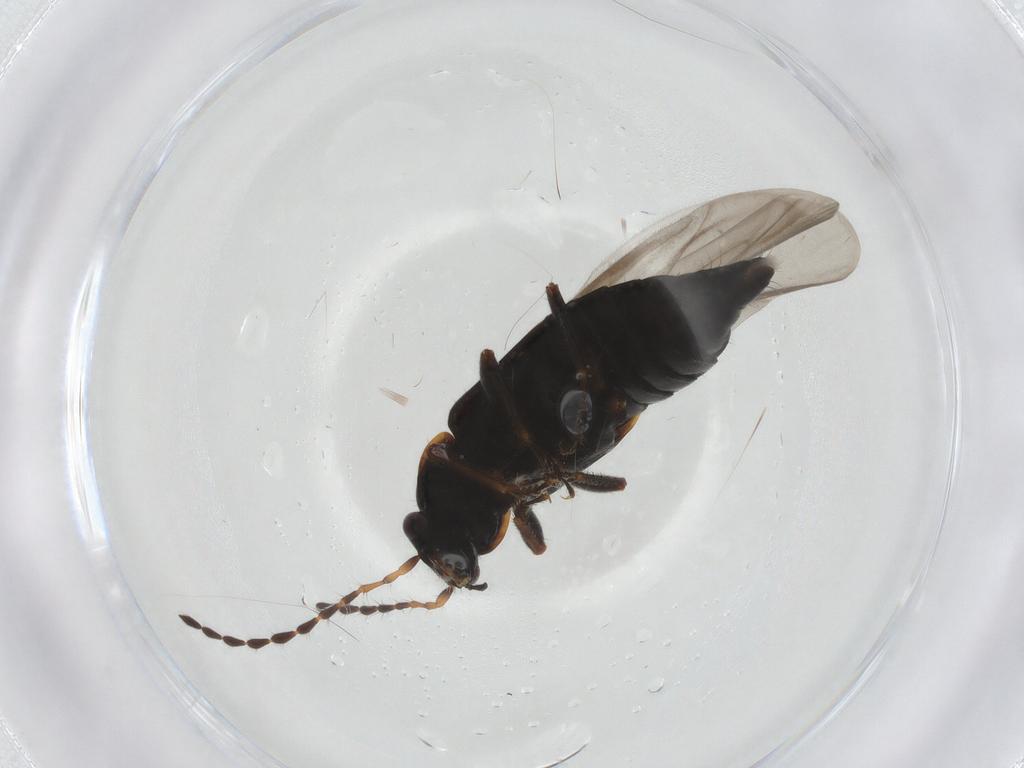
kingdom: Animalia
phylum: Arthropoda
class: Insecta
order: Coleoptera
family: Staphylinidae
